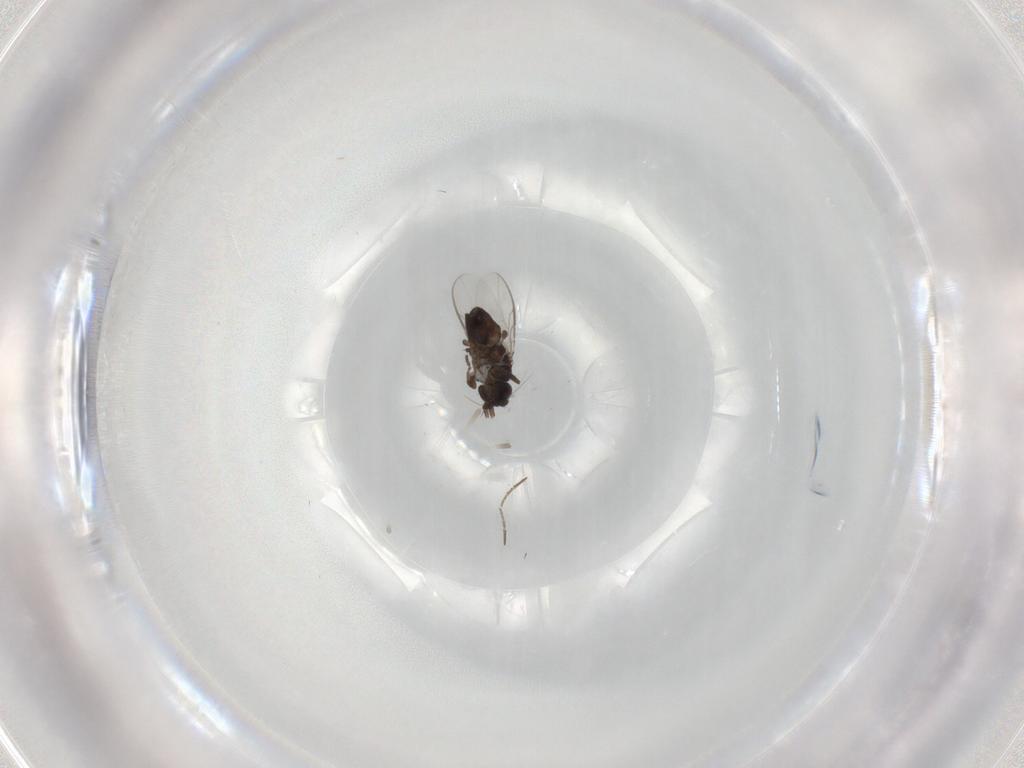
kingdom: Animalia
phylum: Arthropoda
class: Insecta
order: Diptera
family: Sphaeroceridae
